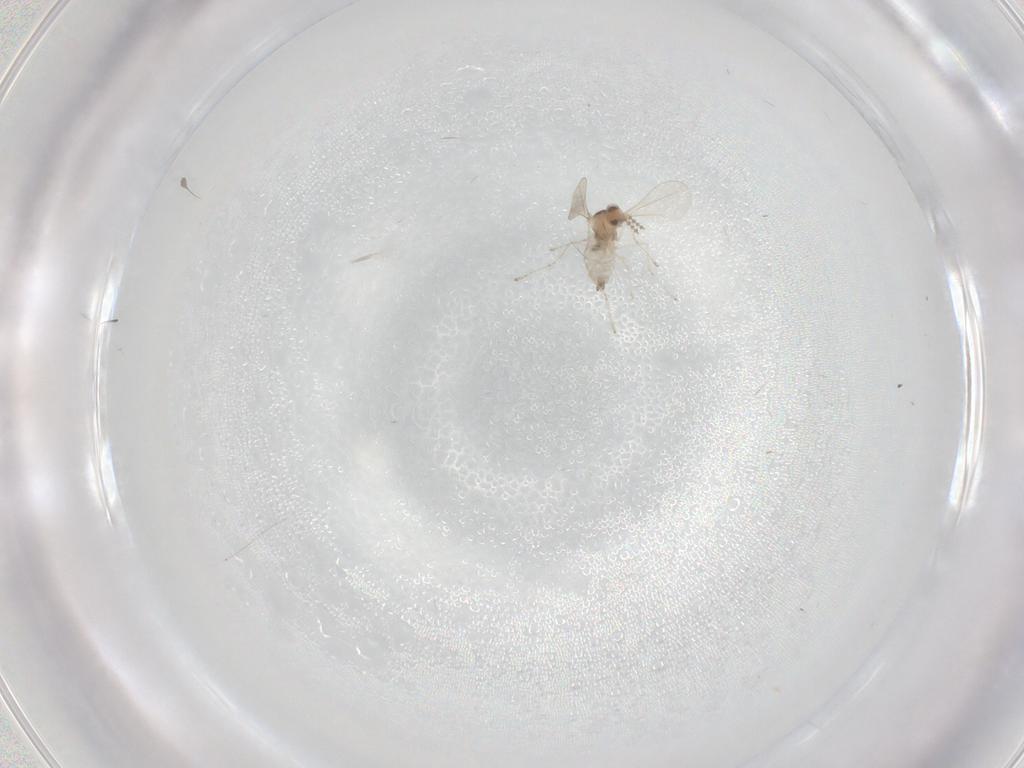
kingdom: Animalia
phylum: Arthropoda
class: Insecta
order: Diptera
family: Cecidomyiidae
